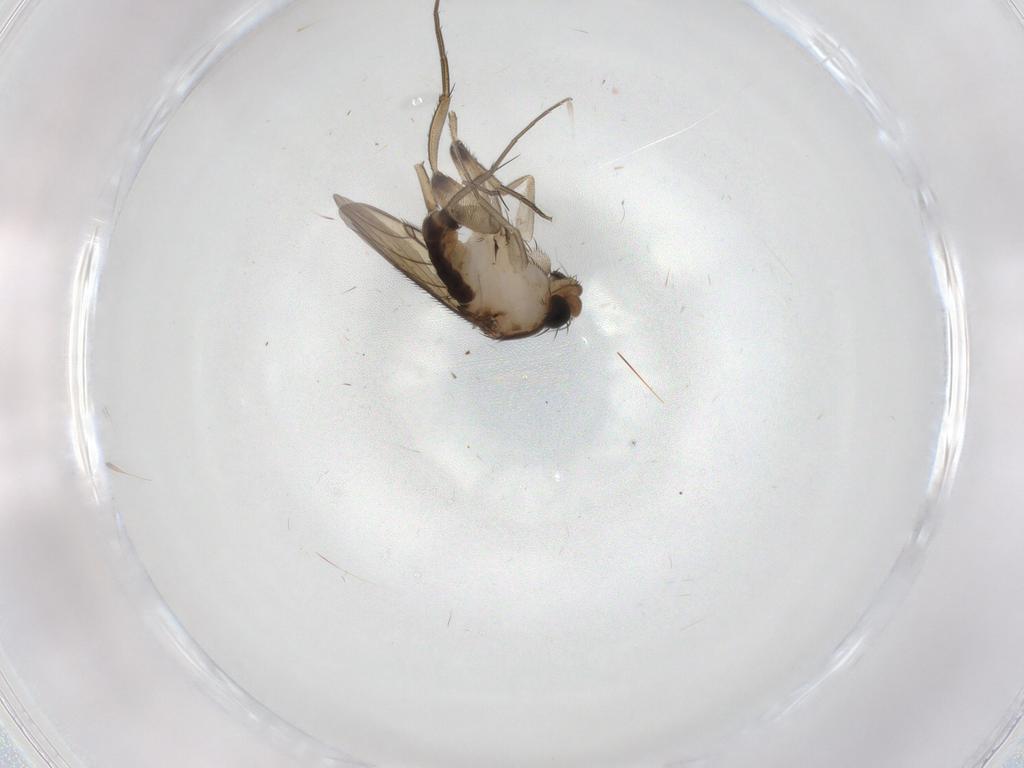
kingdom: Animalia
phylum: Arthropoda
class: Insecta
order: Diptera
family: Phoridae
